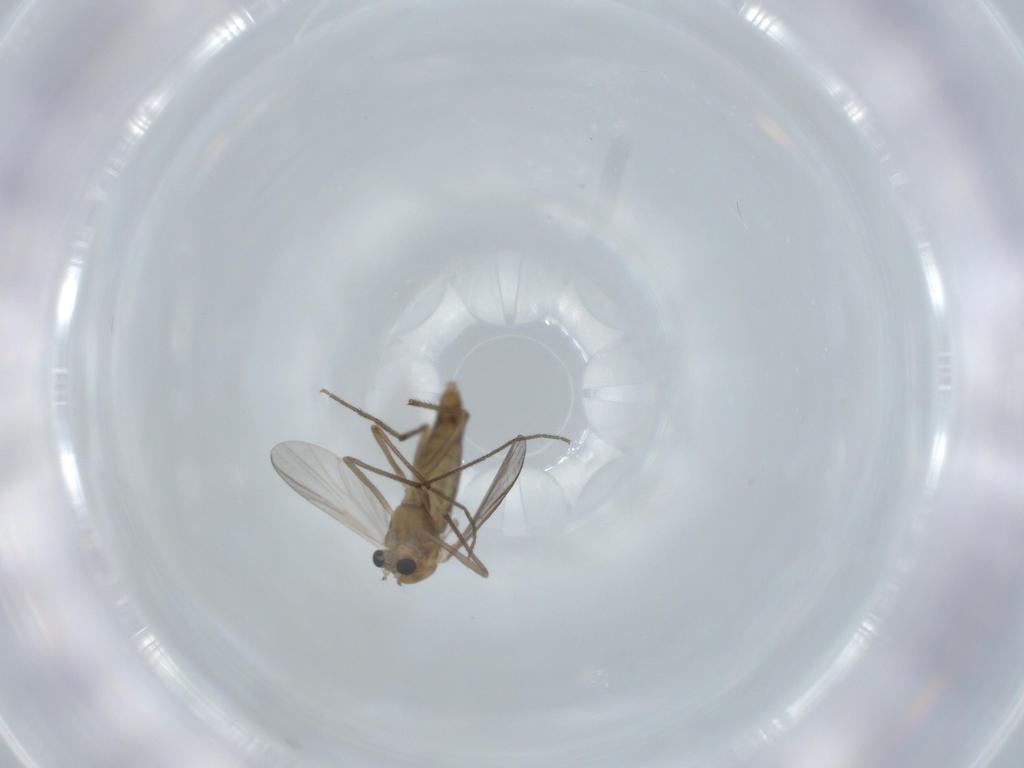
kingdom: Animalia
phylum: Arthropoda
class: Insecta
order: Diptera
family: Chironomidae
